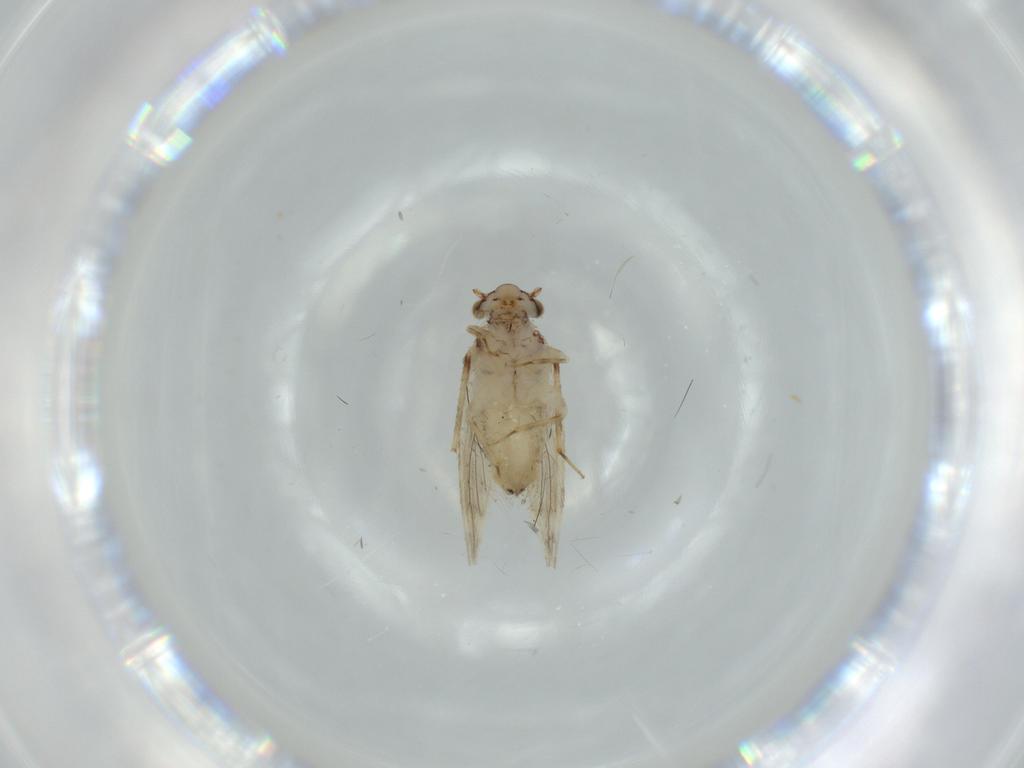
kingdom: Animalia
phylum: Arthropoda
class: Insecta
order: Psocodea
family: Lepidopsocidae
